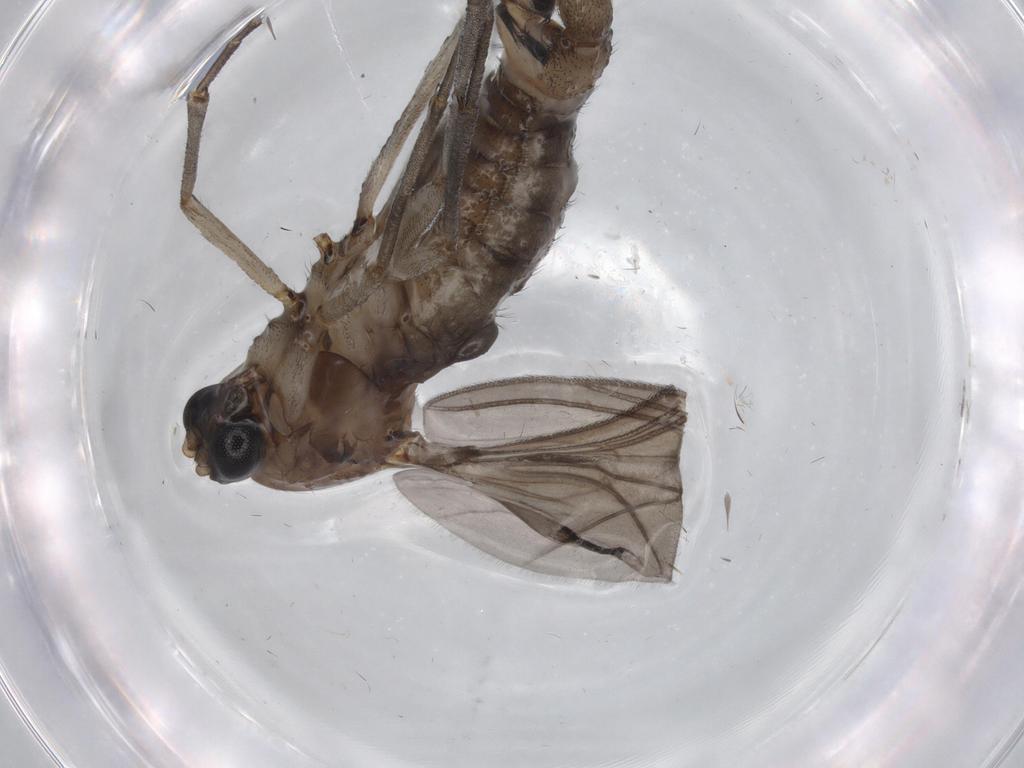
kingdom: Animalia
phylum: Arthropoda
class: Insecta
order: Diptera
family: Sciaridae
